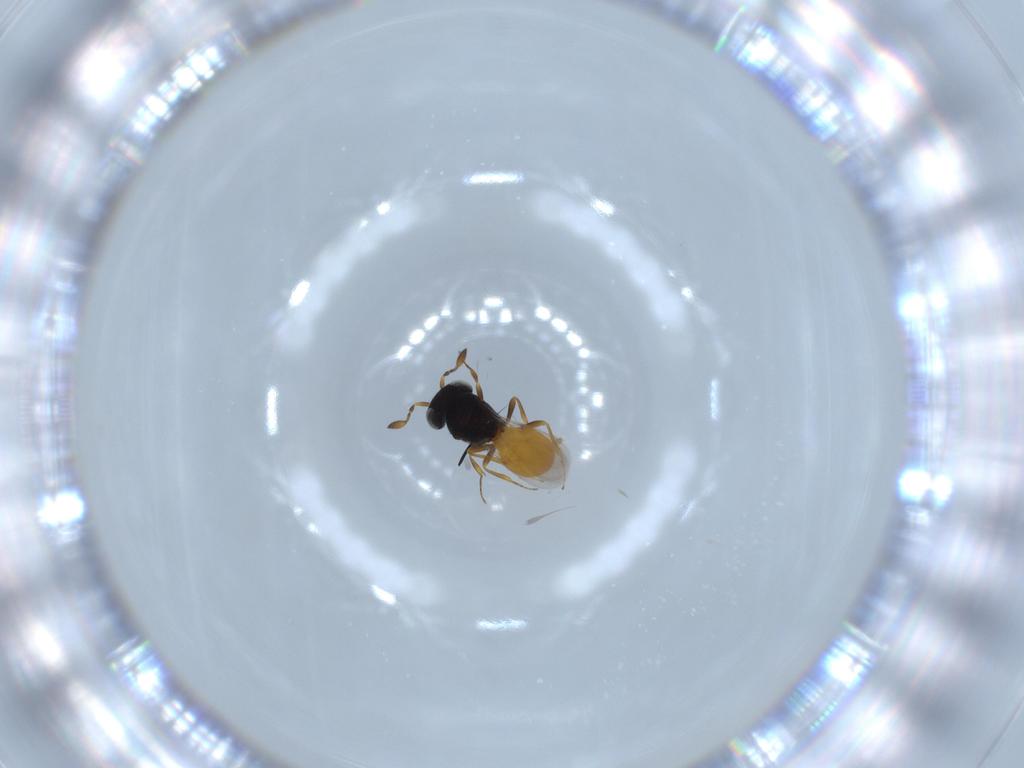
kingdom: Animalia
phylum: Arthropoda
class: Insecta
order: Hymenoptera
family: Scelionidae
